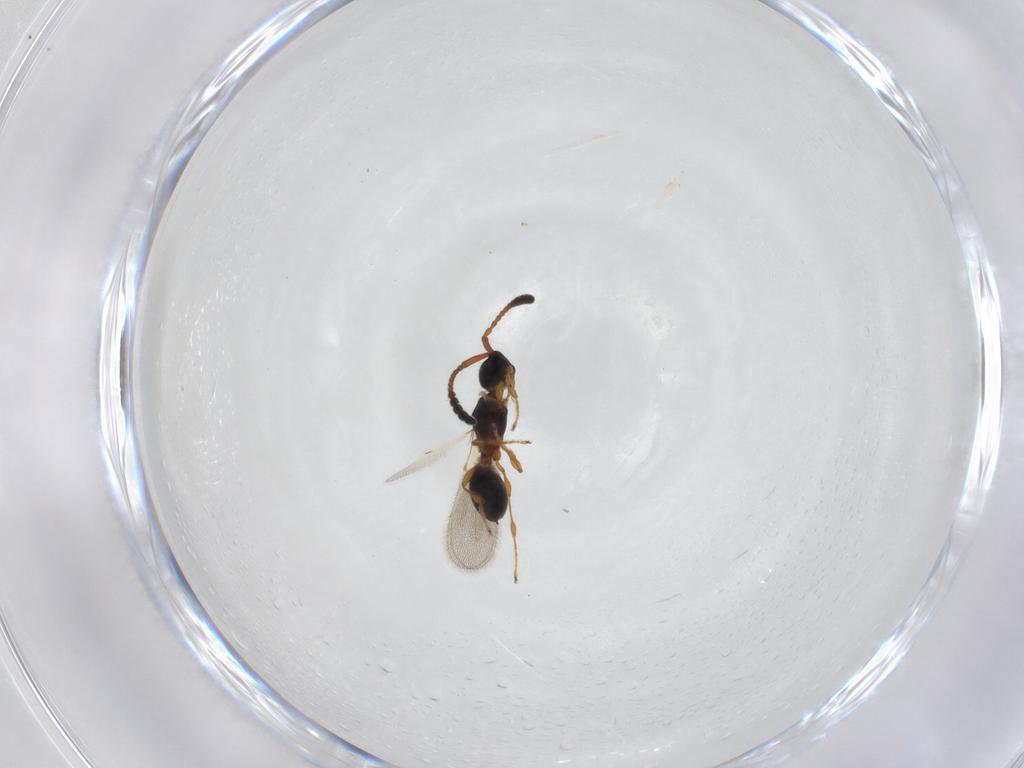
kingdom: Animalia
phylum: Arthropoda
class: Insecta
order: Hymenoptera
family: Diapriidae
